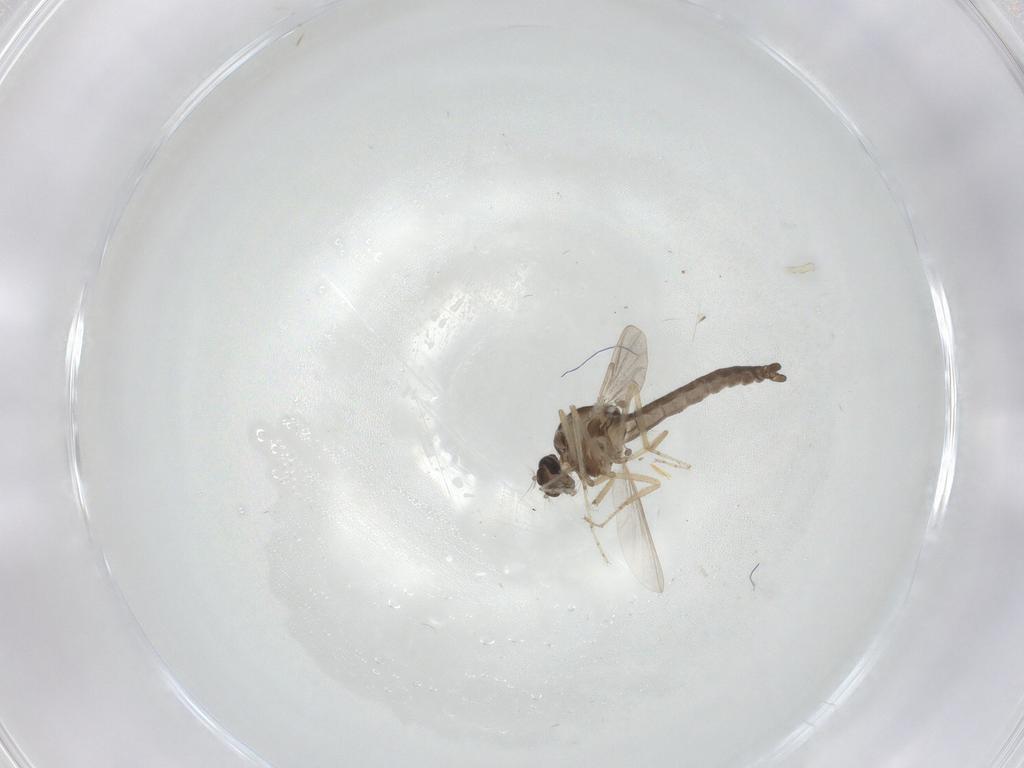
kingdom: Animalia
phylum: Arthropoda
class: Insecta
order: Diptera
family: Ceratopogonidae
